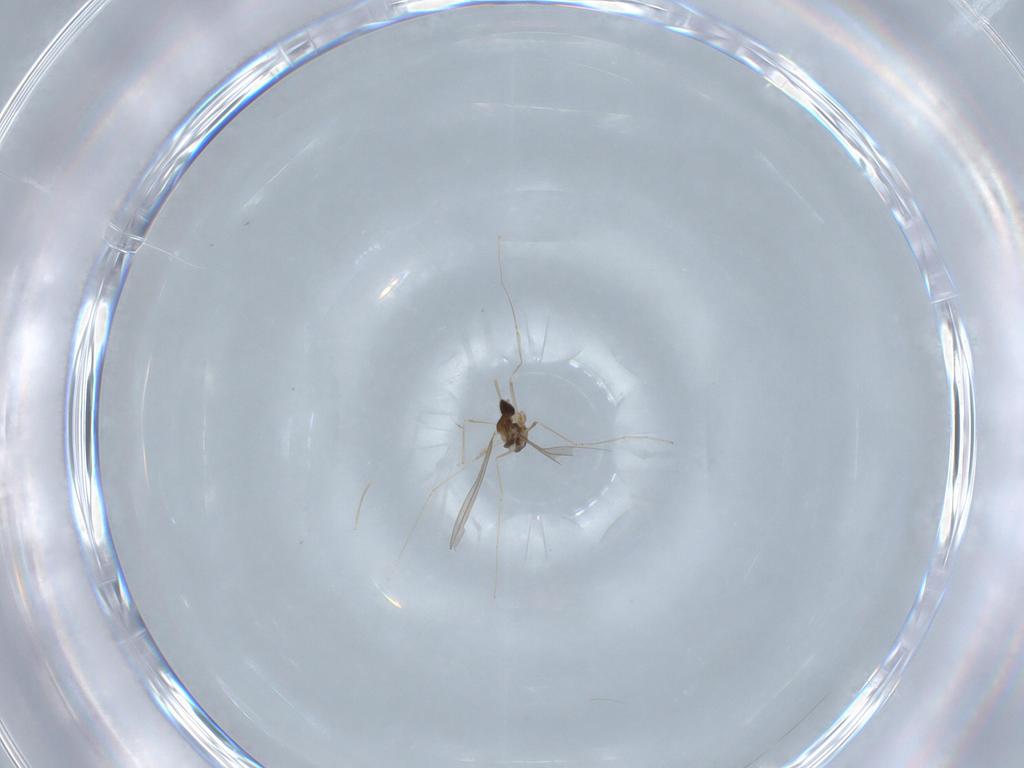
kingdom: Animalia
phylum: Arthropoda
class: Insecta
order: Diptera
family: Cecidomyiidae
